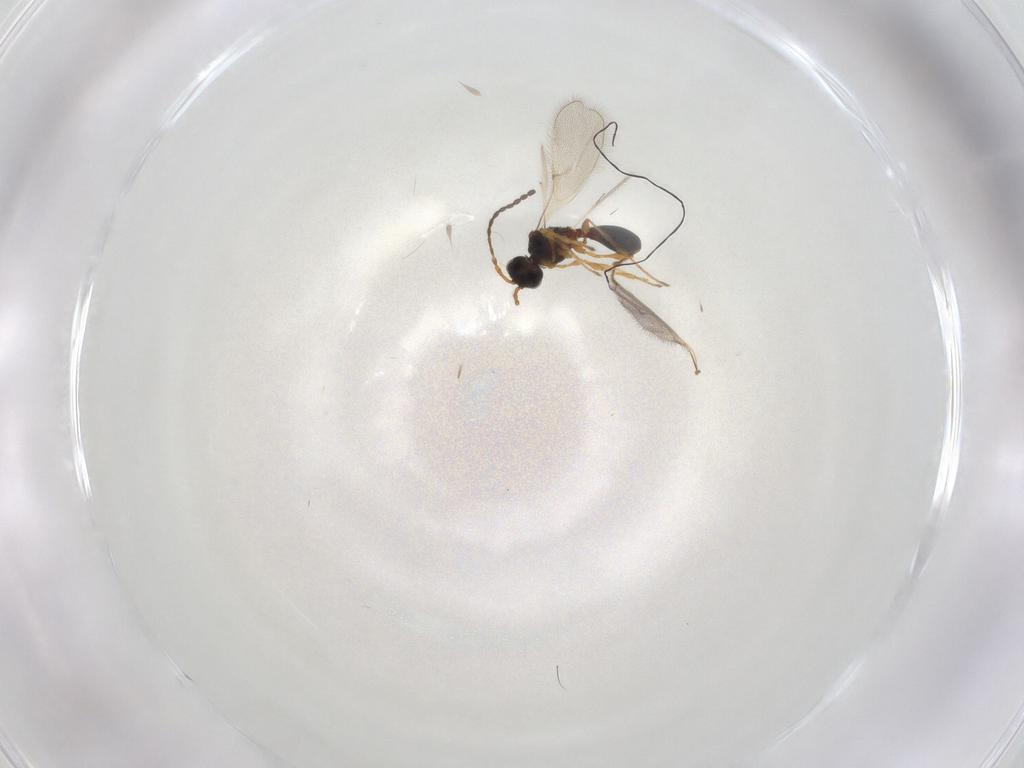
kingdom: Animalia
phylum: Arthropoda
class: Insecta
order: Hymenoptera
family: Diapriidae
